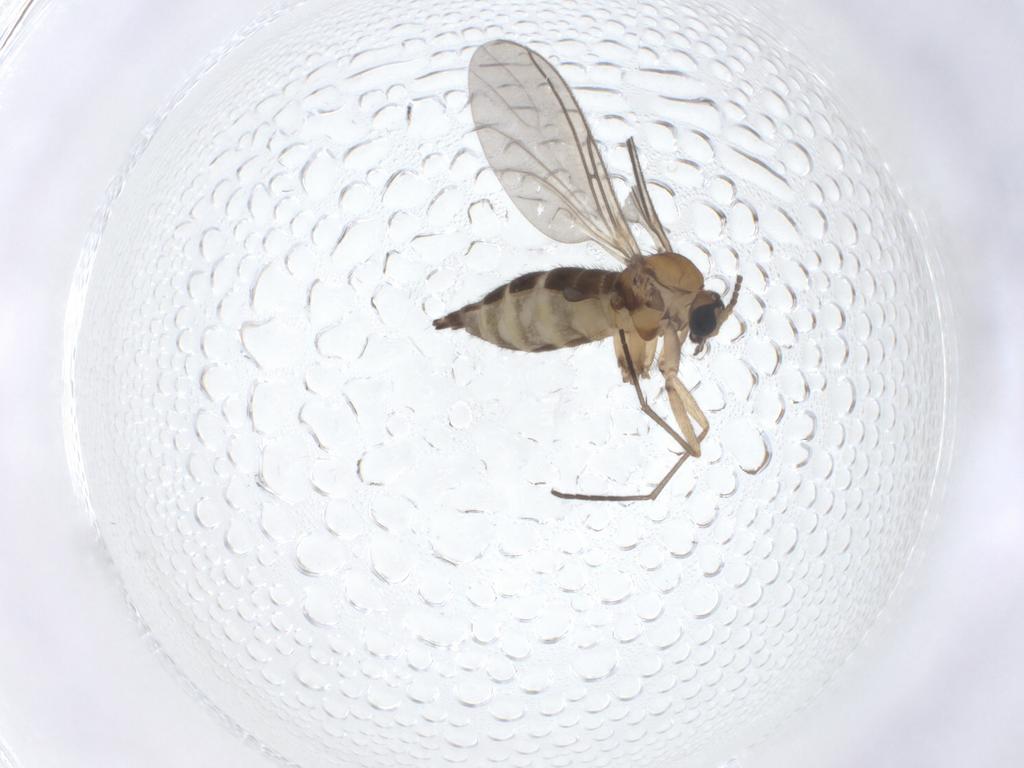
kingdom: Animalia
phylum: Arthropoda
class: Insecta
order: Diptera
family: Sciaridae
